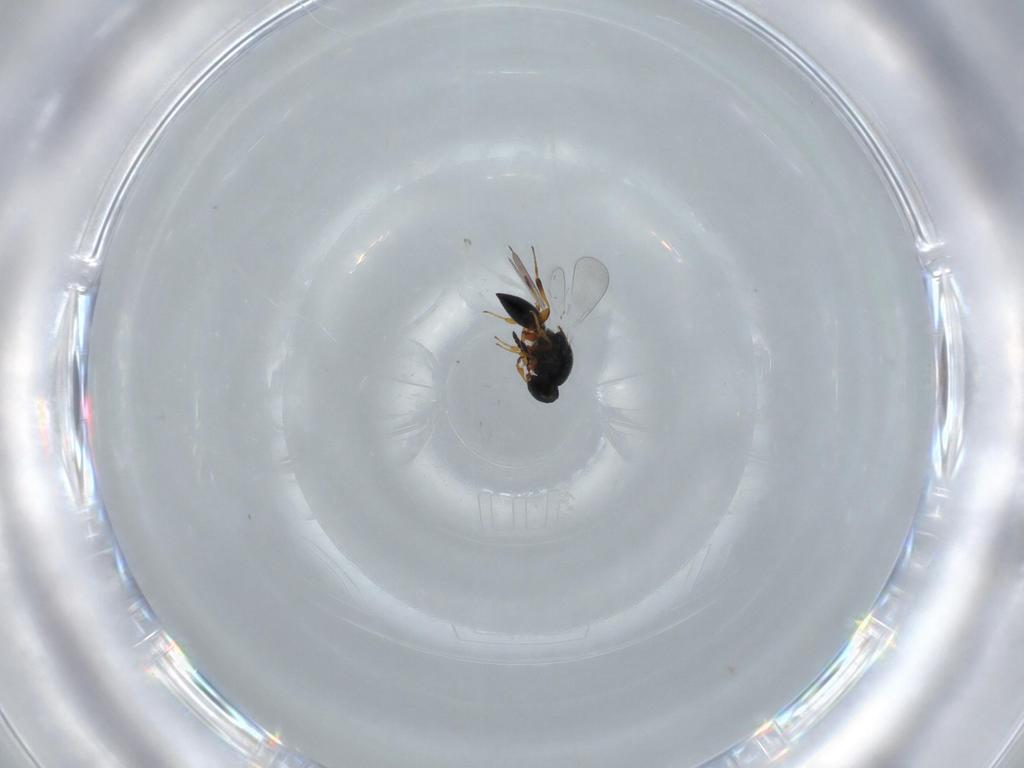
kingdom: Animalia
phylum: Arthropoda
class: Insecta
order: Hymenoptera
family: Platygastridae
